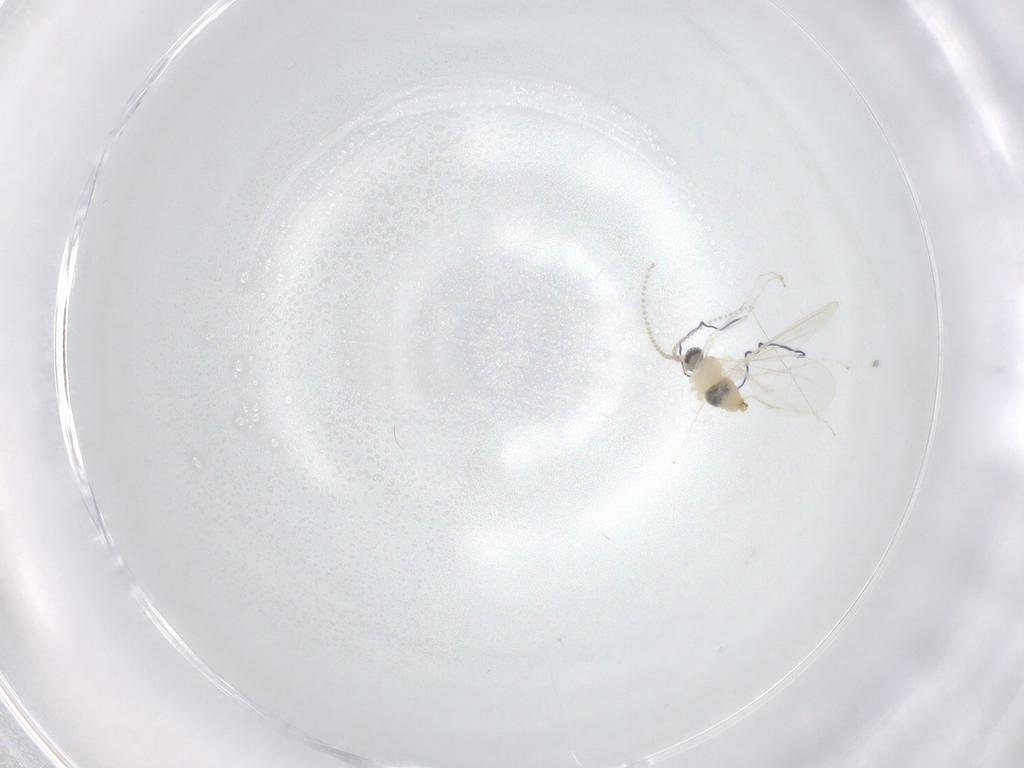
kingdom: Animalia
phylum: Arthropoda
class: Insecta
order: Diptera
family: Cecidomyiidae
